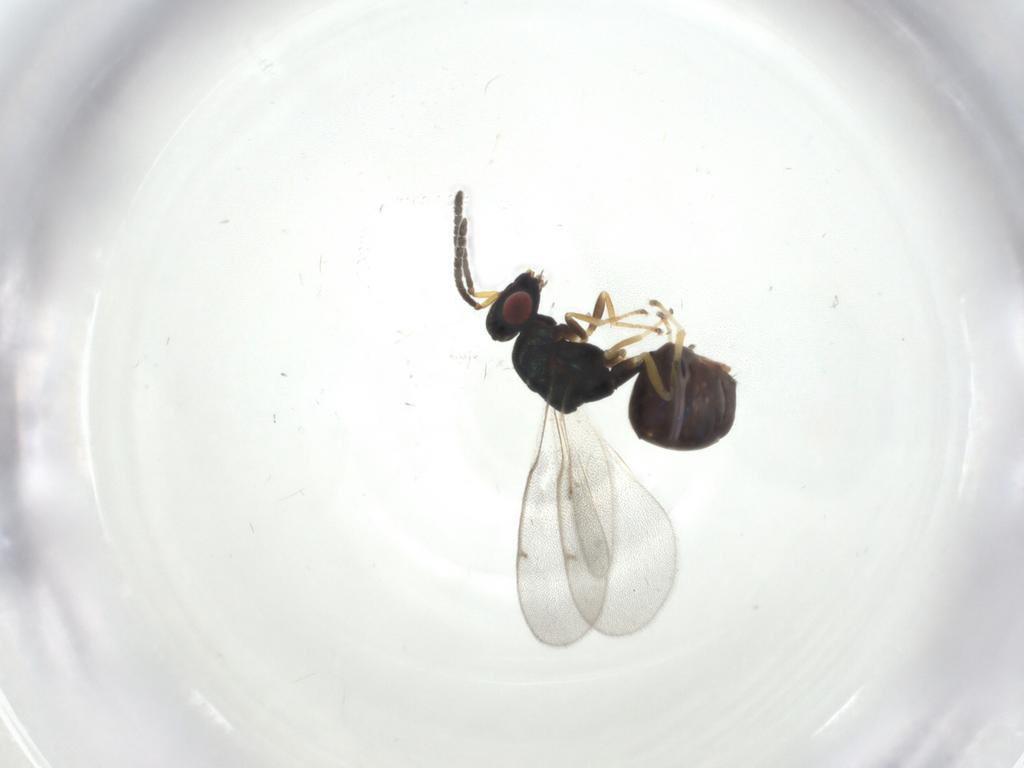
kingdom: Animalia
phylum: Arthropoda
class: Insecta
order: Hymenoptera
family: Eucharitidae
